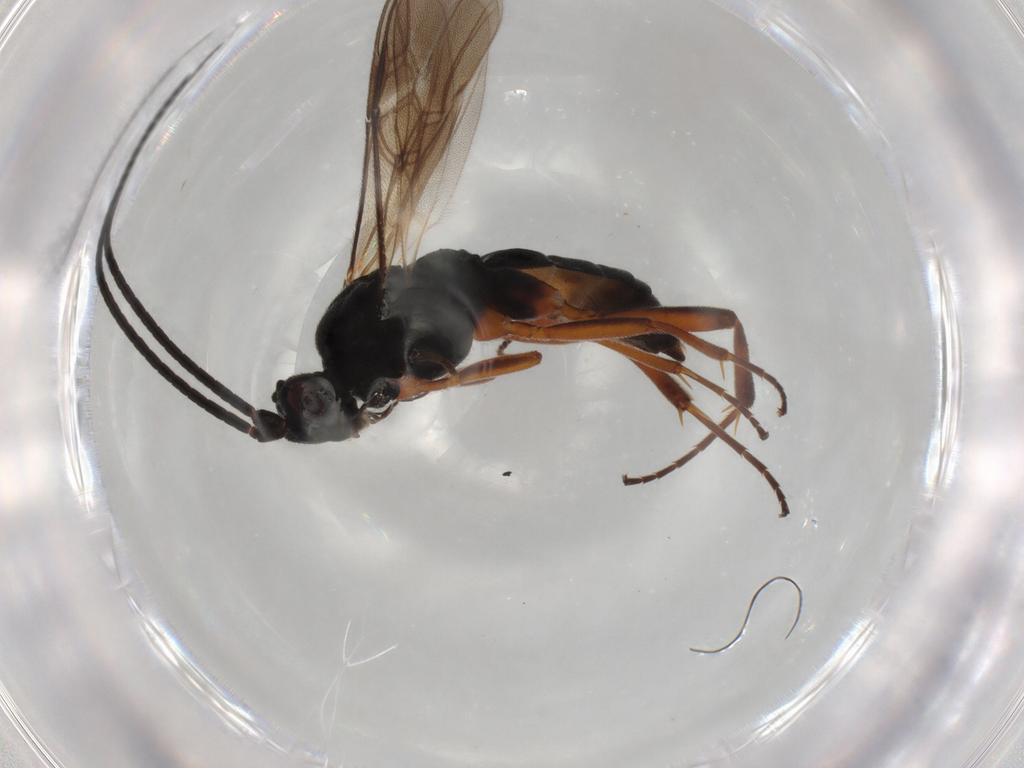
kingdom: Animalia
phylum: Arthropoda
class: Insecta
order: Hymenoptera
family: Braconidae
